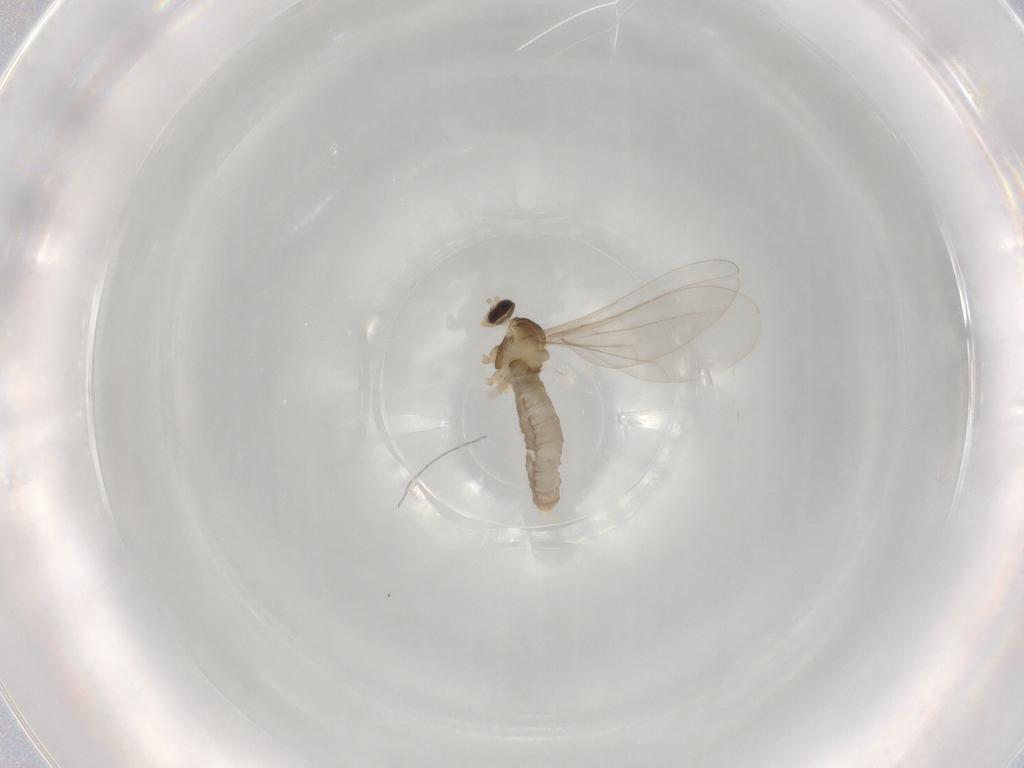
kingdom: Animalia
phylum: Arthropoda
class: Insecta
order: Diptera
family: Cecidomyiidae
